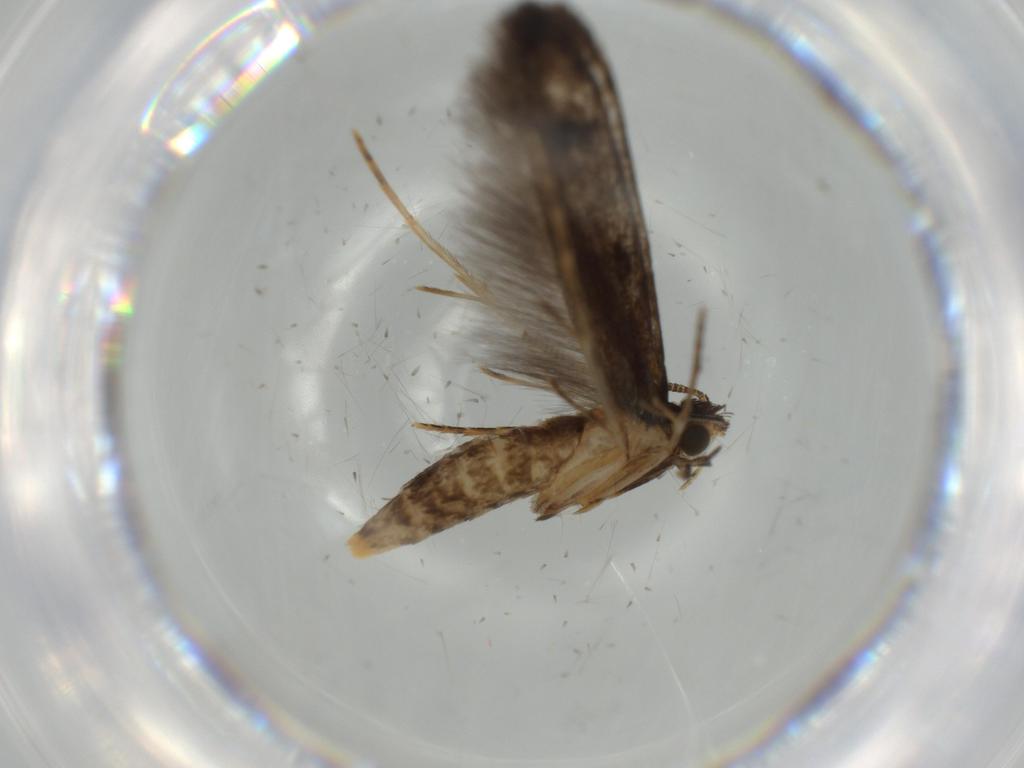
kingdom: Animalia
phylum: Arthropoda
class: Insecta
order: Lepidoptera
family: Tineidae
